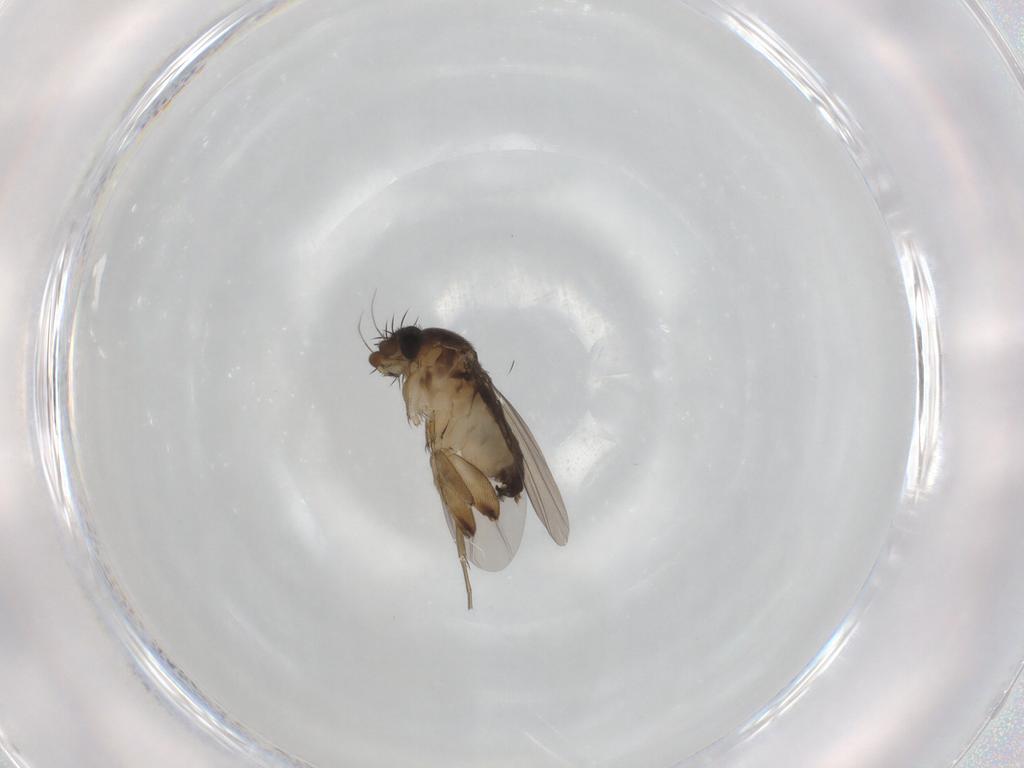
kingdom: Animalia
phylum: Arthropoda
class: Insecta
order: Diptera
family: Phoridae
